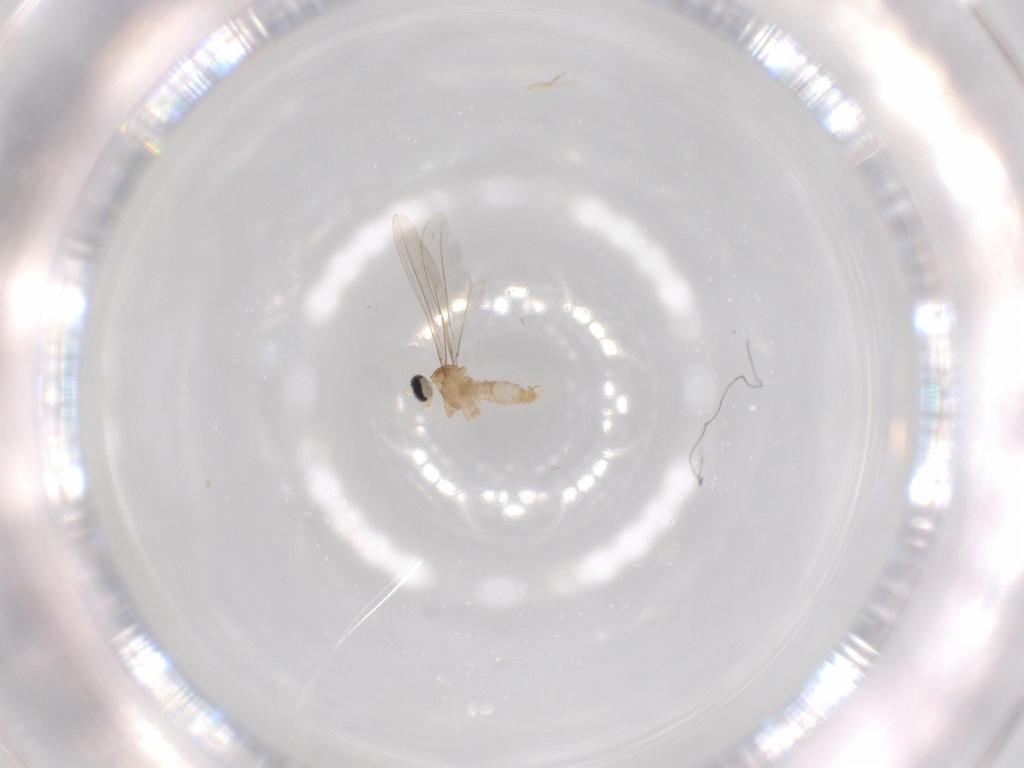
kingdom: Animalia
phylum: Arthropoda
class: Insecta
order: Diptera
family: Cecidomyiidae
